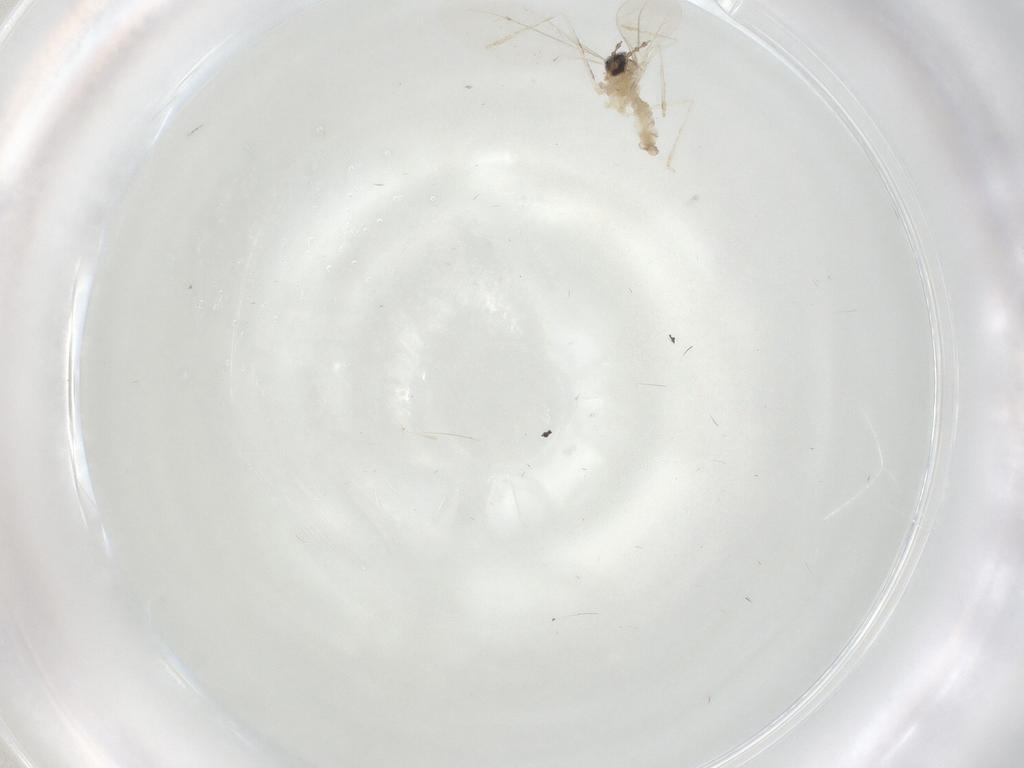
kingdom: Animalia
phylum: Arthropoda
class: Insecta
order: Diptera
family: Cecidomyiidae
